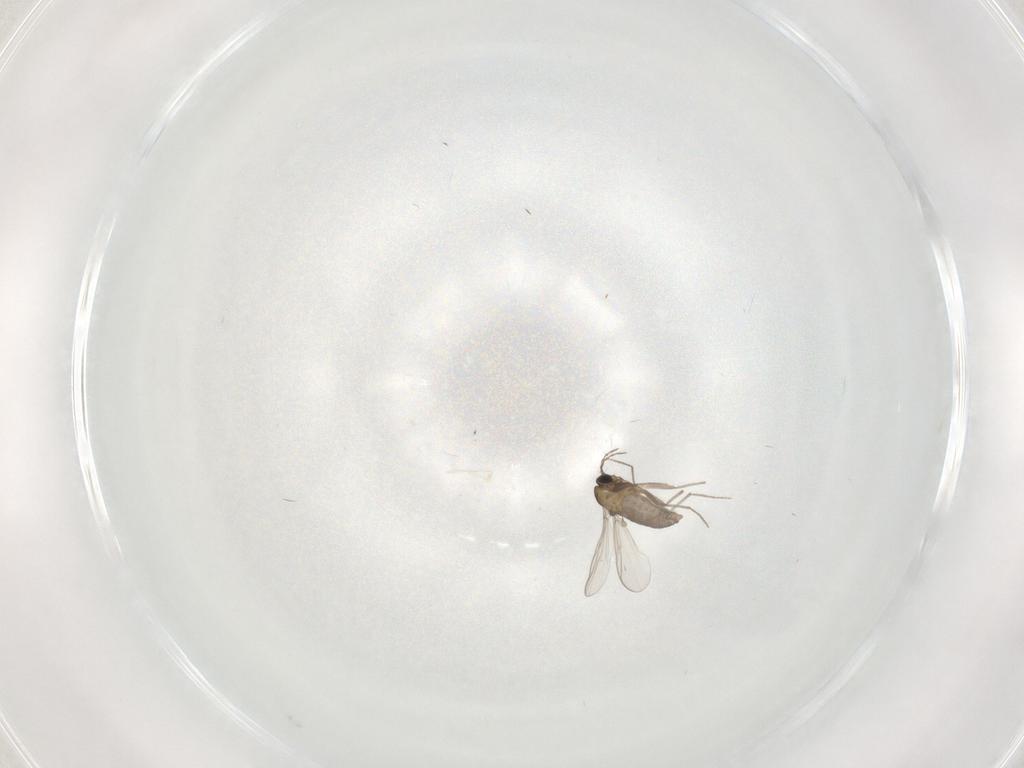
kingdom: Animalia
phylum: Arthropoda
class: Insecta
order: Diptera
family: Chironomidae
